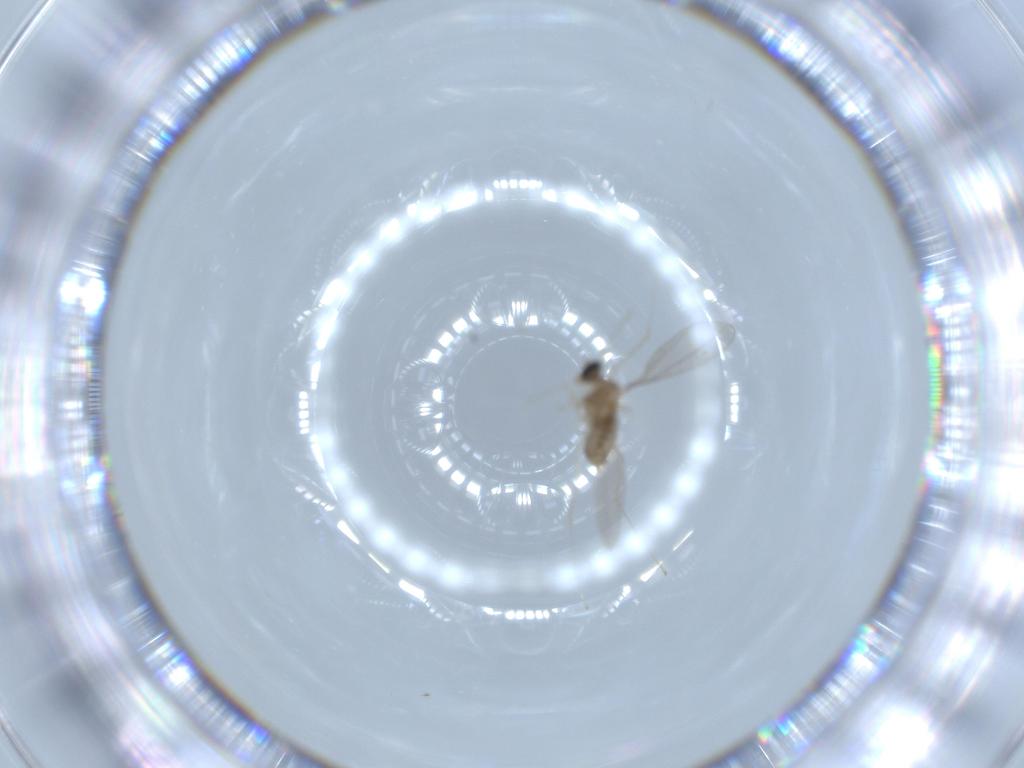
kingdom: Animalia
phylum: Arthropoda
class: Insecta
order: Diptera
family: Cecidomyiidae
